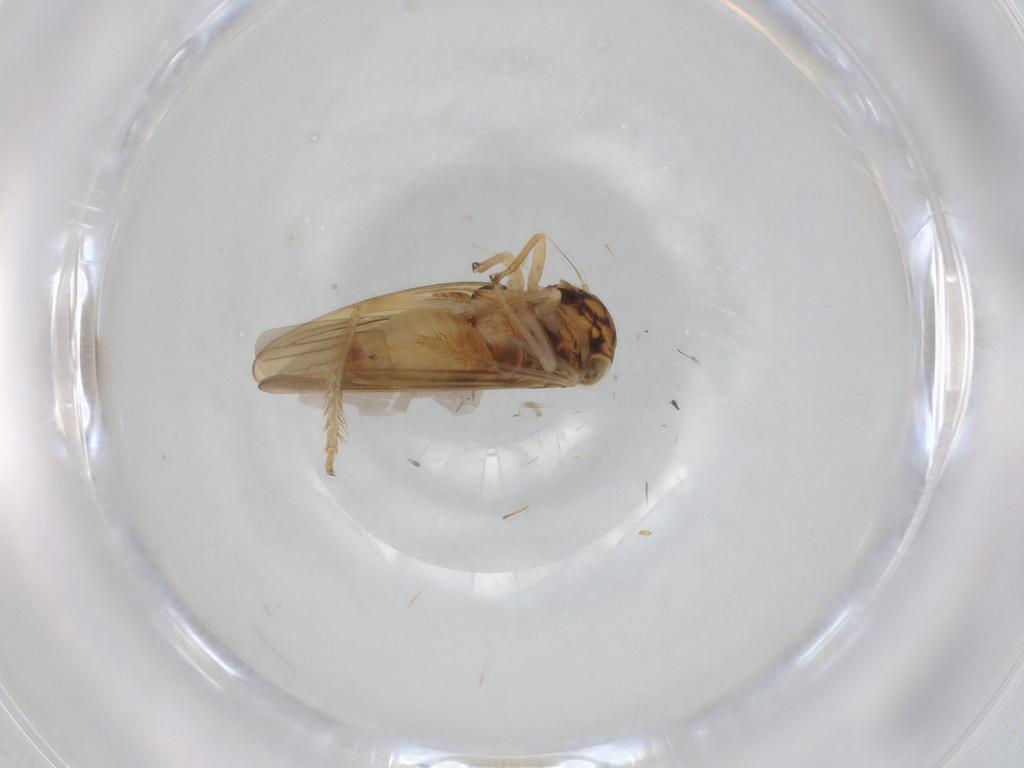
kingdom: Animalia
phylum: Arthropoda
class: Insecta
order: Hemiptera
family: Cicadellidae
